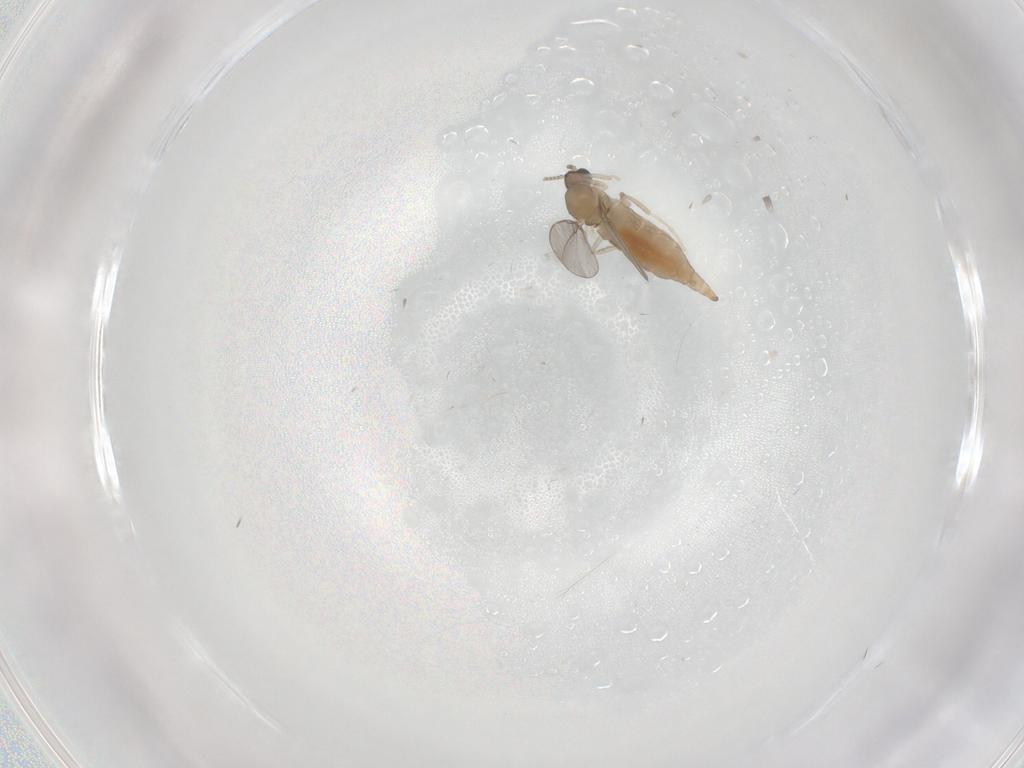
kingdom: Animalia
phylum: Arthropoda
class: Insecta
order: Diptera
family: Cecidomyiidae
